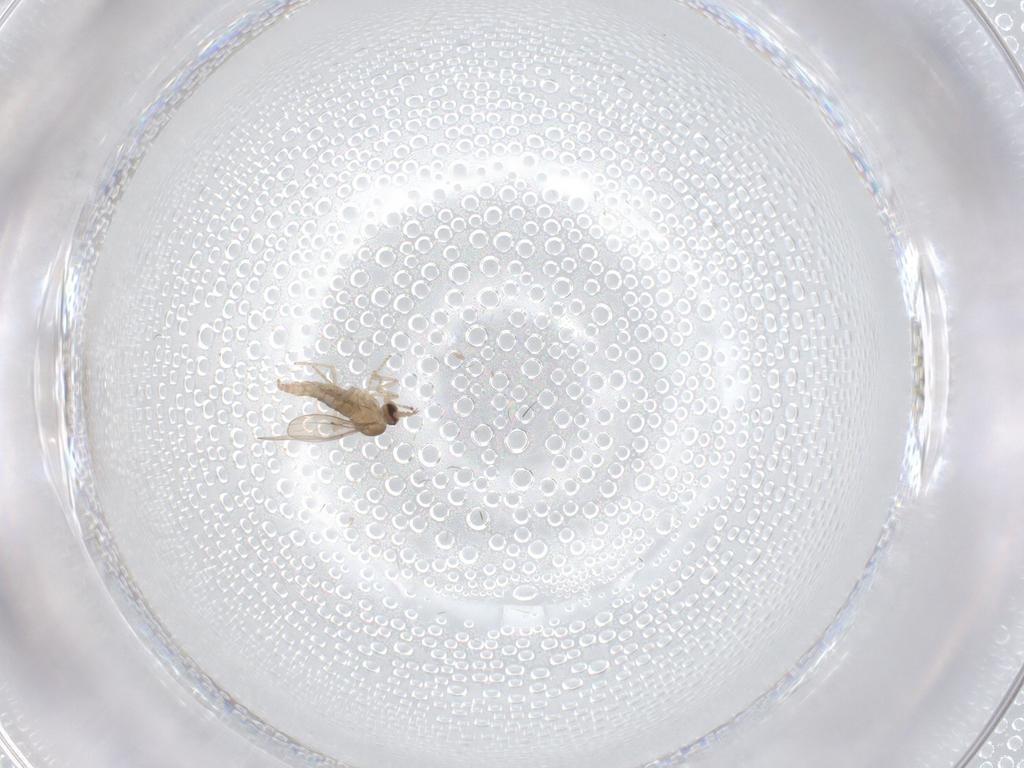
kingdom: Animalia
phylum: Arthropoda
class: Insecta
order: Diptera
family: Cecidomyiidae
